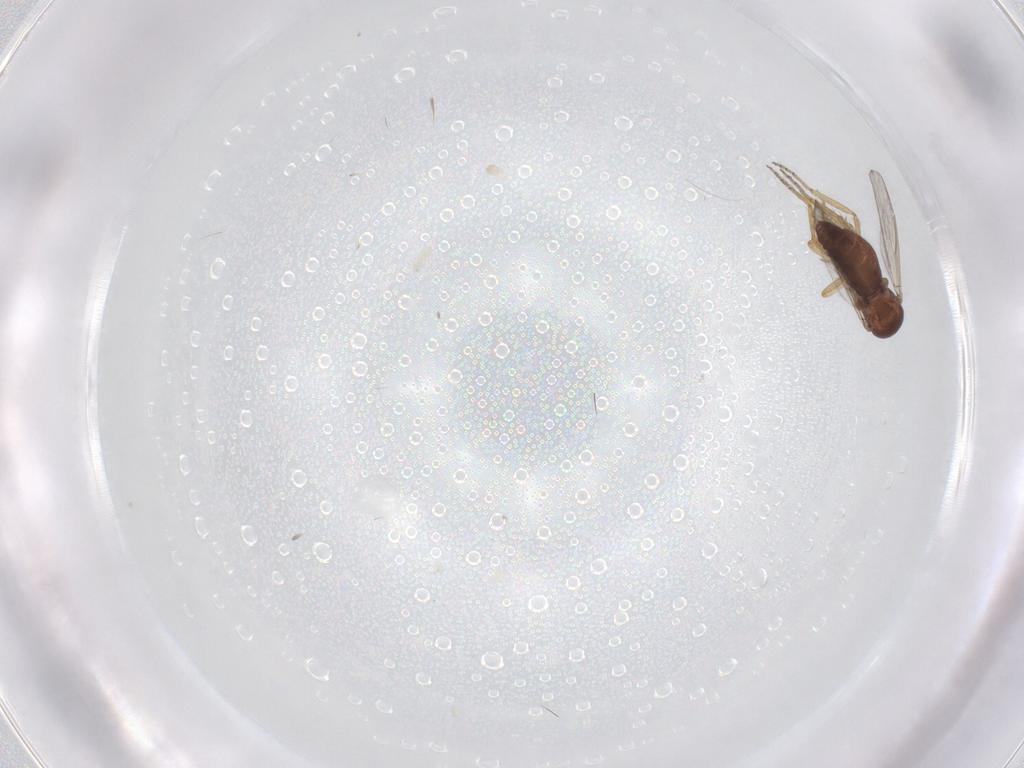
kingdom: Animalia
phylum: Arthropoda
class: Insecta
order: Diptera
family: Ceratopogonidae
